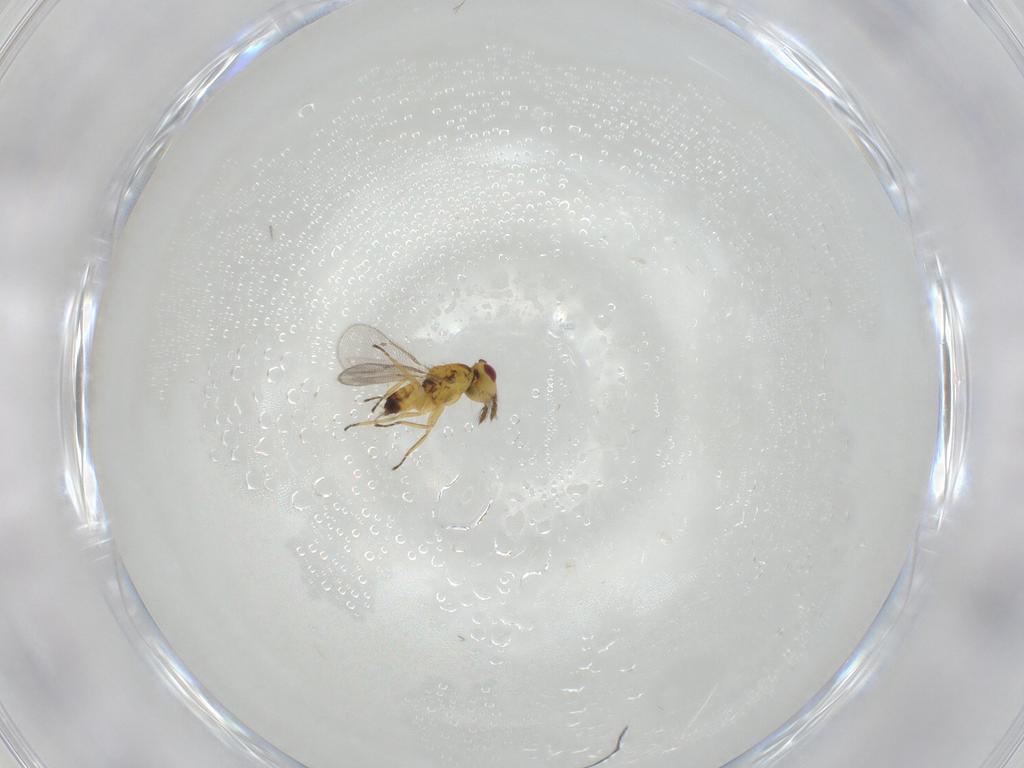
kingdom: Animalia
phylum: Arthropoda
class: Insecta
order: Hymenoptera
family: Eulophidae
